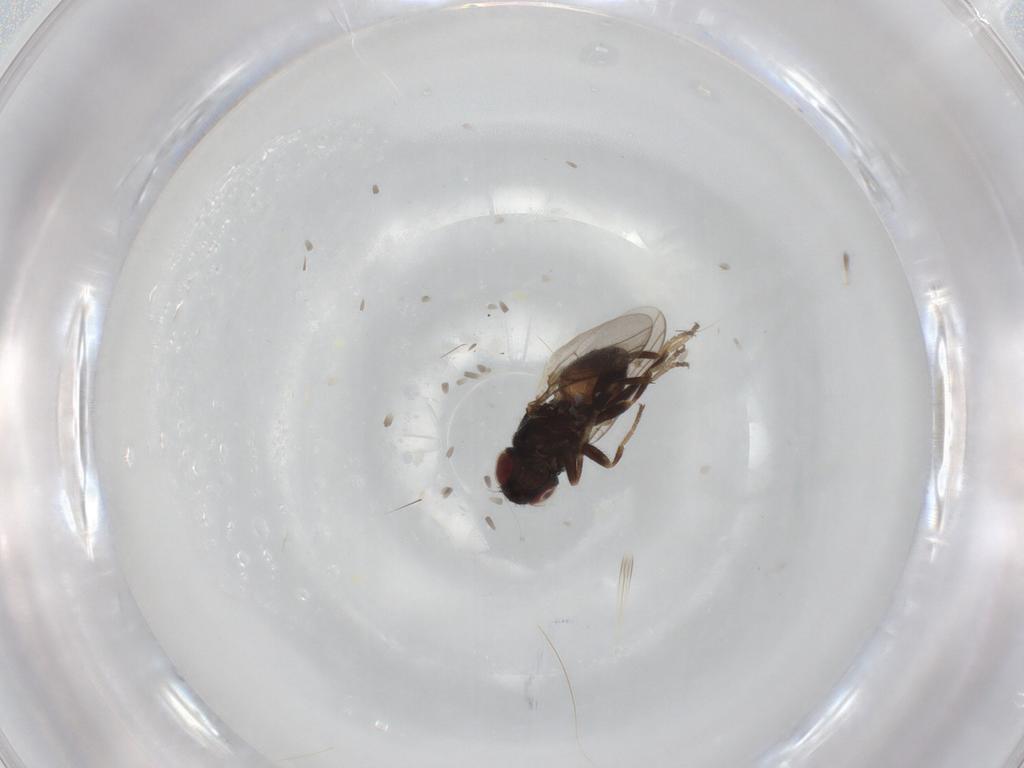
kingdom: Animalia
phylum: Arthropoda
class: Insecta
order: Diptera
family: Chloropidae
